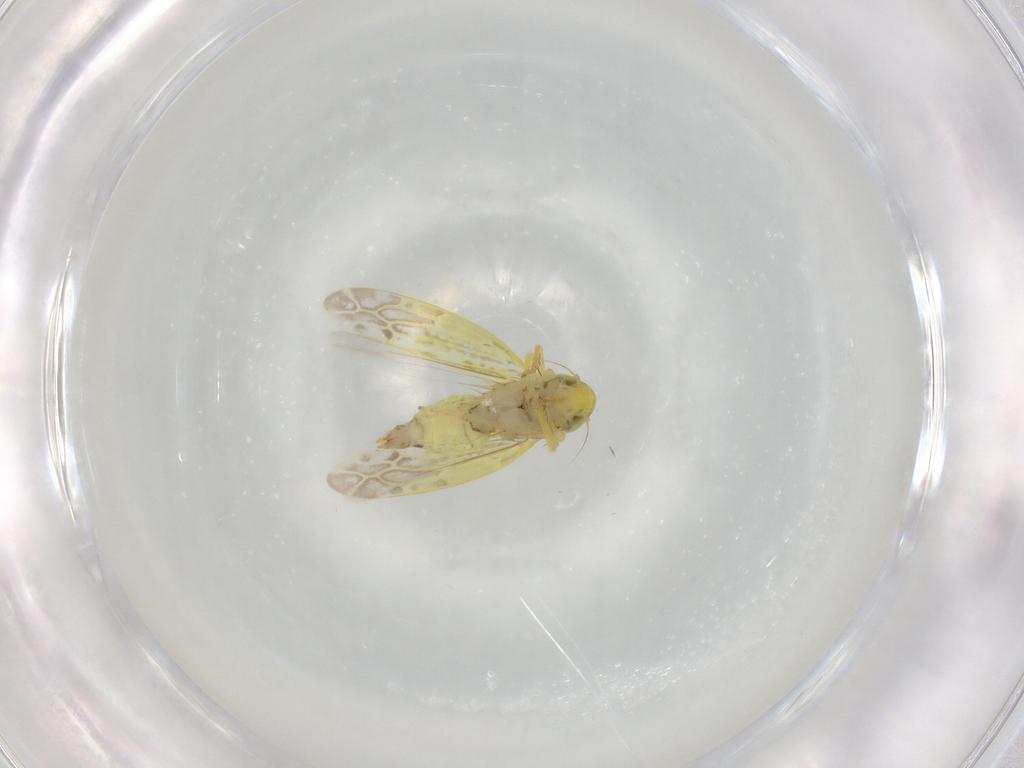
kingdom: Animalia
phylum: Arthropoda
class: Insecta
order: Hemiptera
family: Cicadellidae
